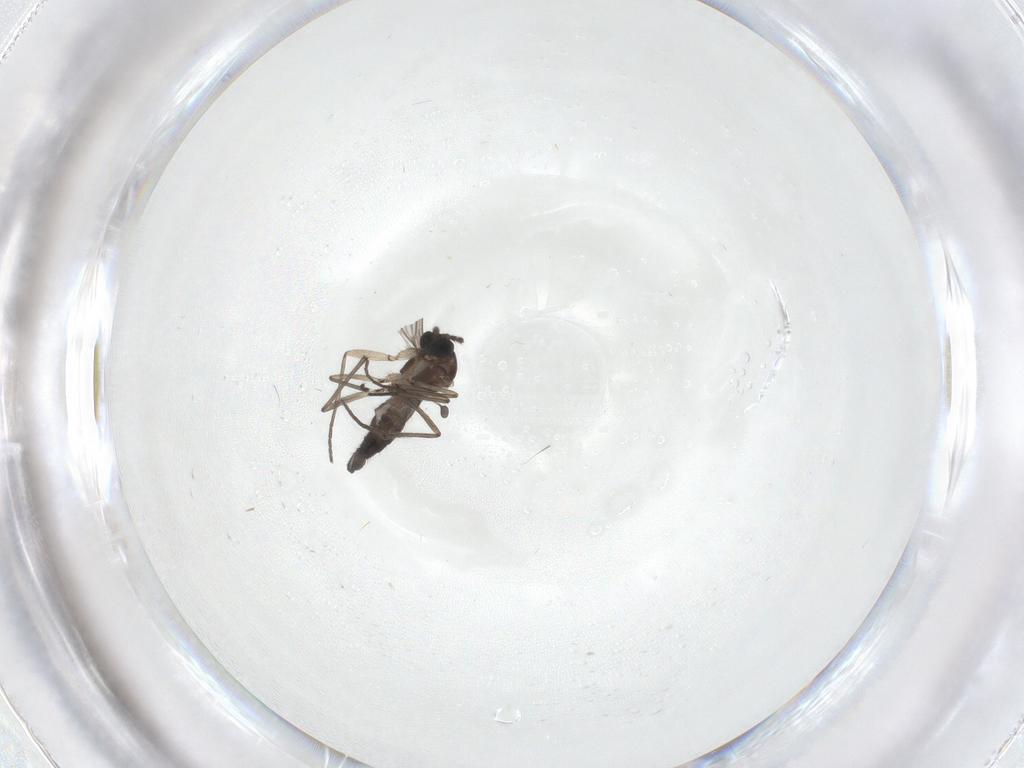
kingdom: Animalia
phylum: Arthropoda
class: Insecta
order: Diptera
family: Sciaridae
